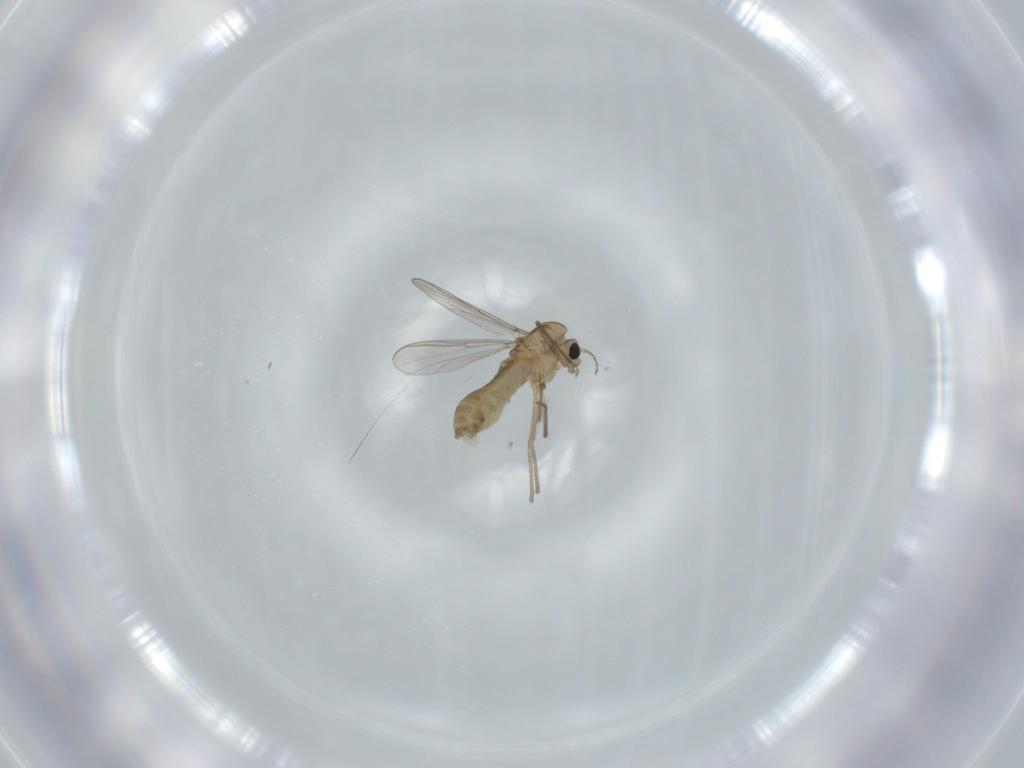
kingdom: Animalia
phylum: Arthropoda
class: Insecta
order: Diptera
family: Chironomidae
